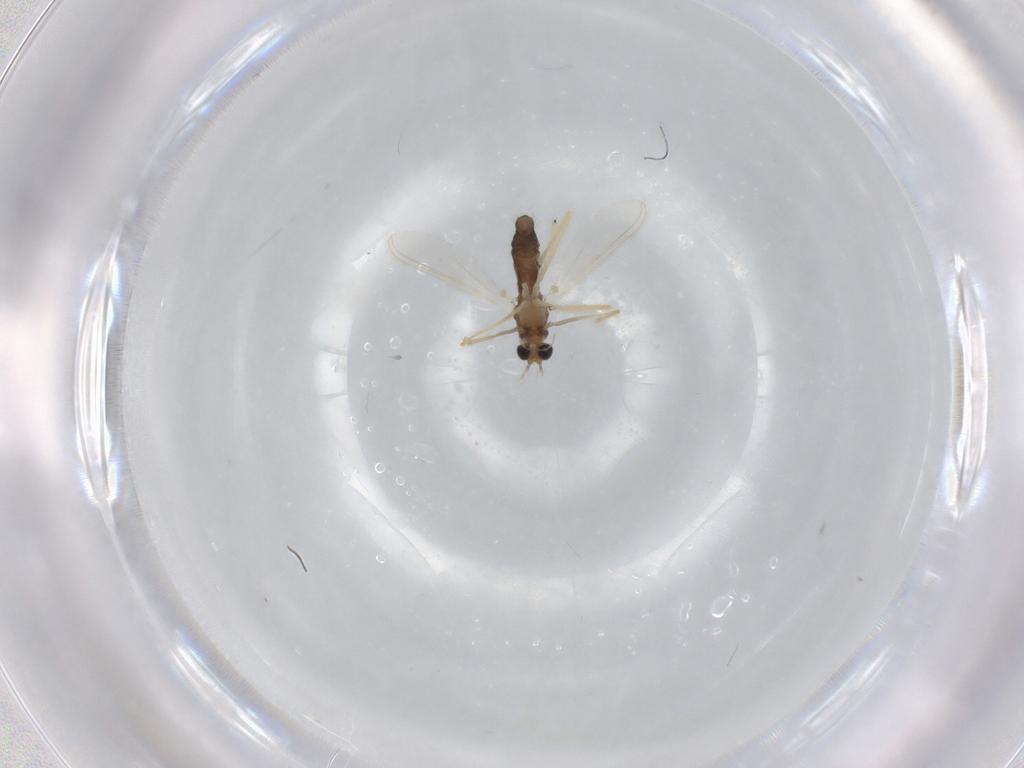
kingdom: Animalia
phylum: Arthropoda
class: Insecta
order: Diptera
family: Chironomidae
